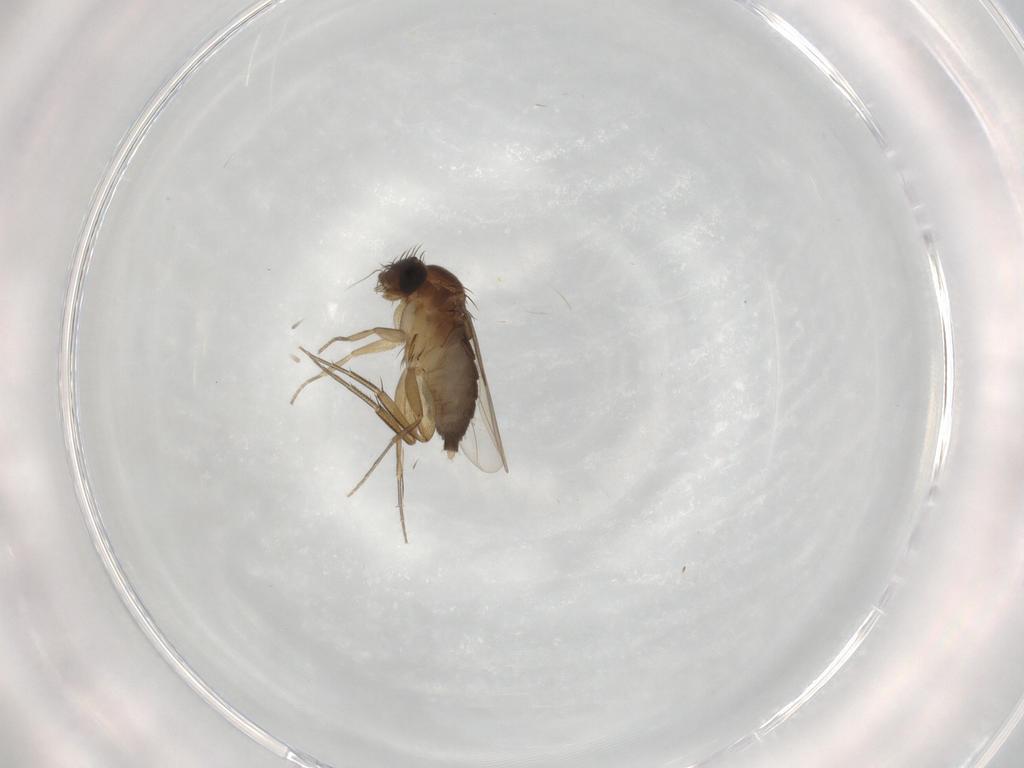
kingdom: Animalia
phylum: Arthropoda
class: Insecta
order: Diptera
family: Phoridae
